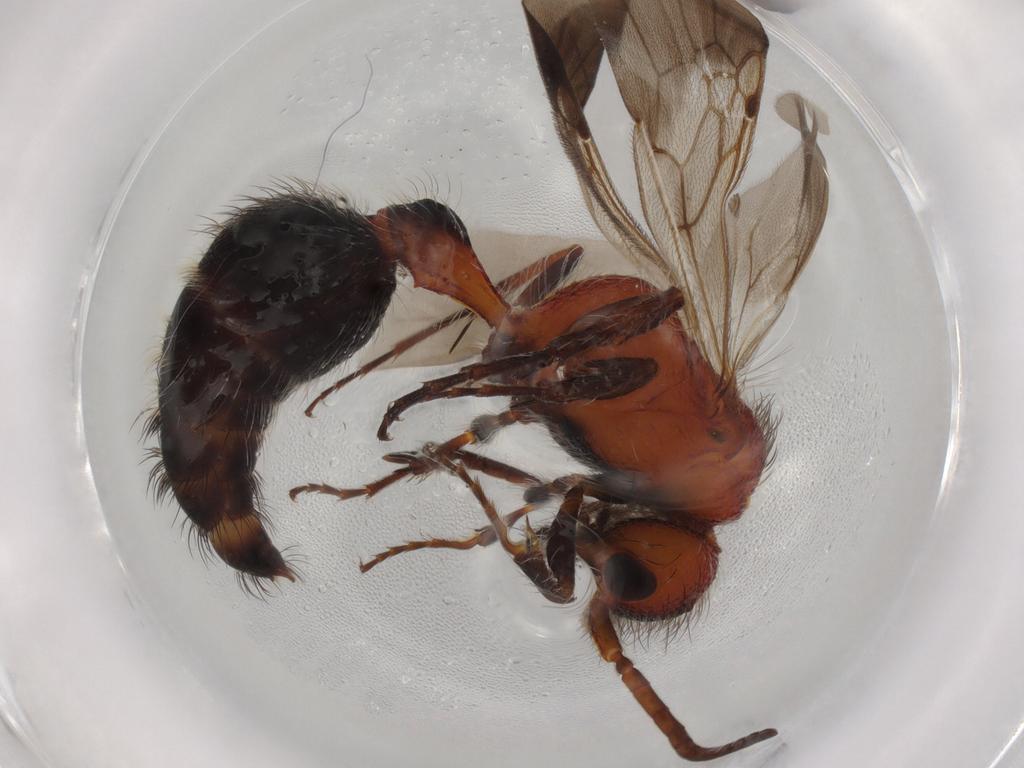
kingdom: Animalia
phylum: Arthropoda
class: Insecta
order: Hymenoptera
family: Mutillidae
